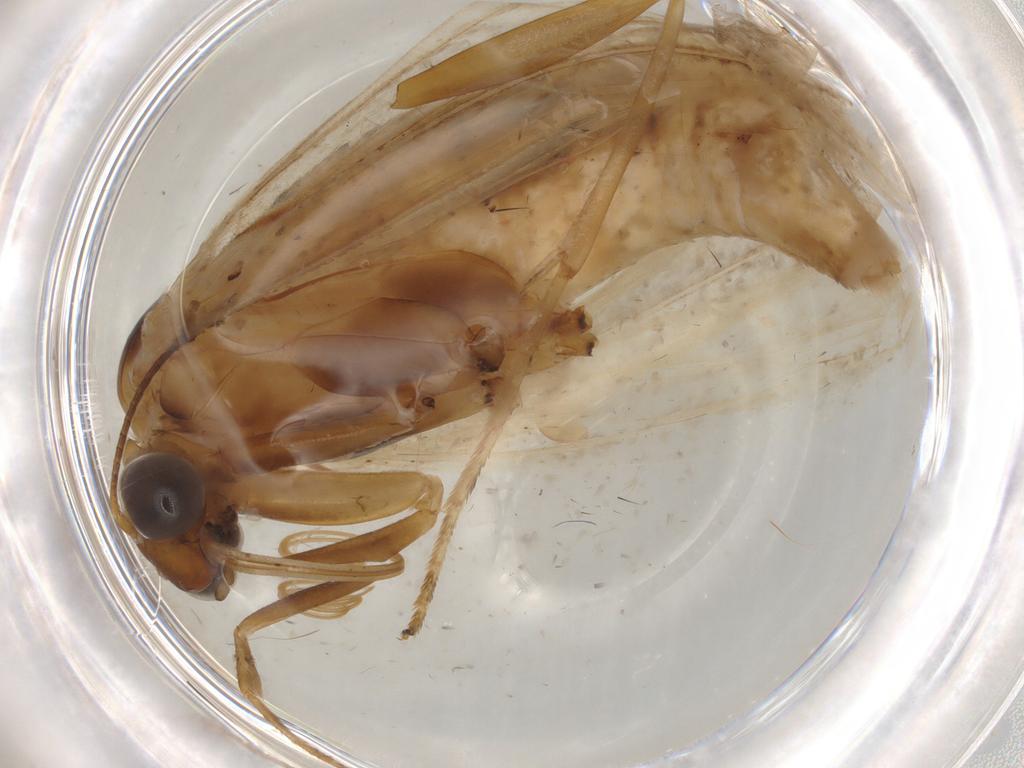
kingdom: Animalia
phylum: Arthropoda
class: Insecta
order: Lepidoptera
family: Crambidae
